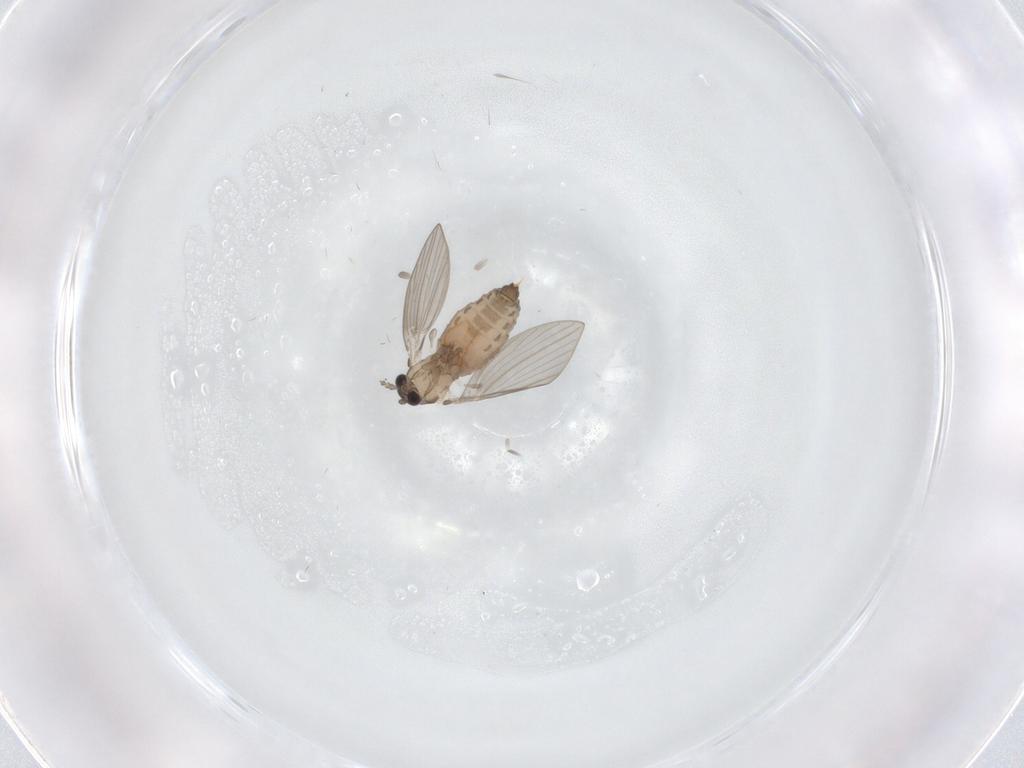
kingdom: Animalia
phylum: Arthropoda
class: Insecta
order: Diptera
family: Psychodidae
